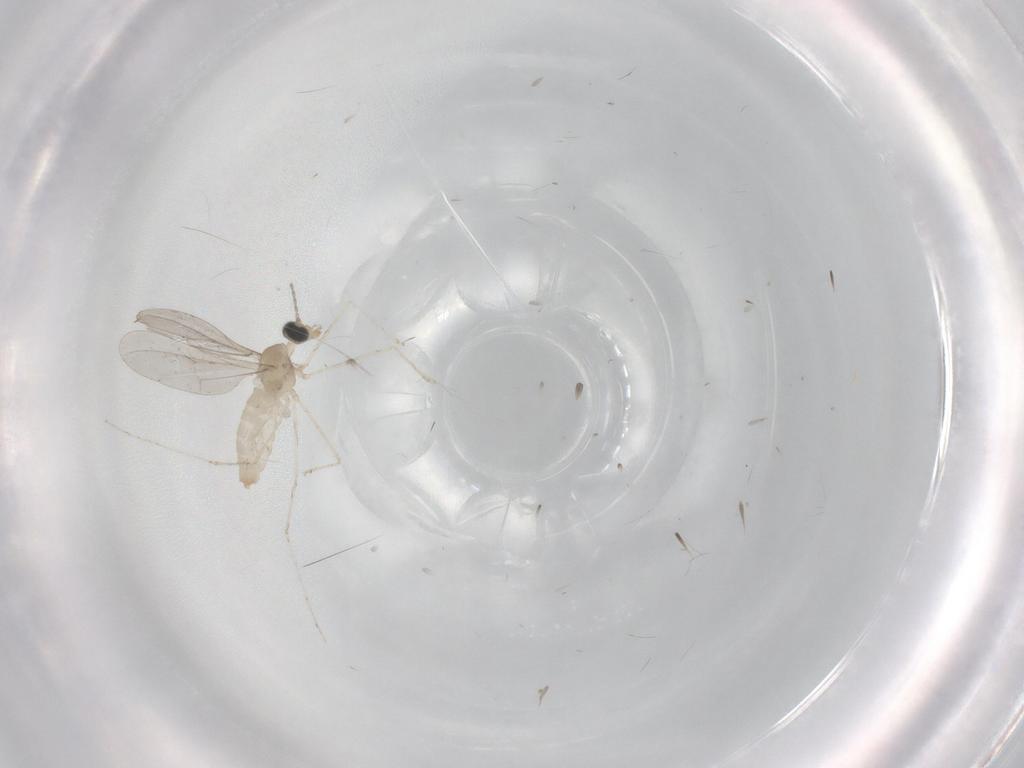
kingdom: Animalia
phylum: Arthropoda
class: Insecta
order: Diptera
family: Cecidomyiidae
